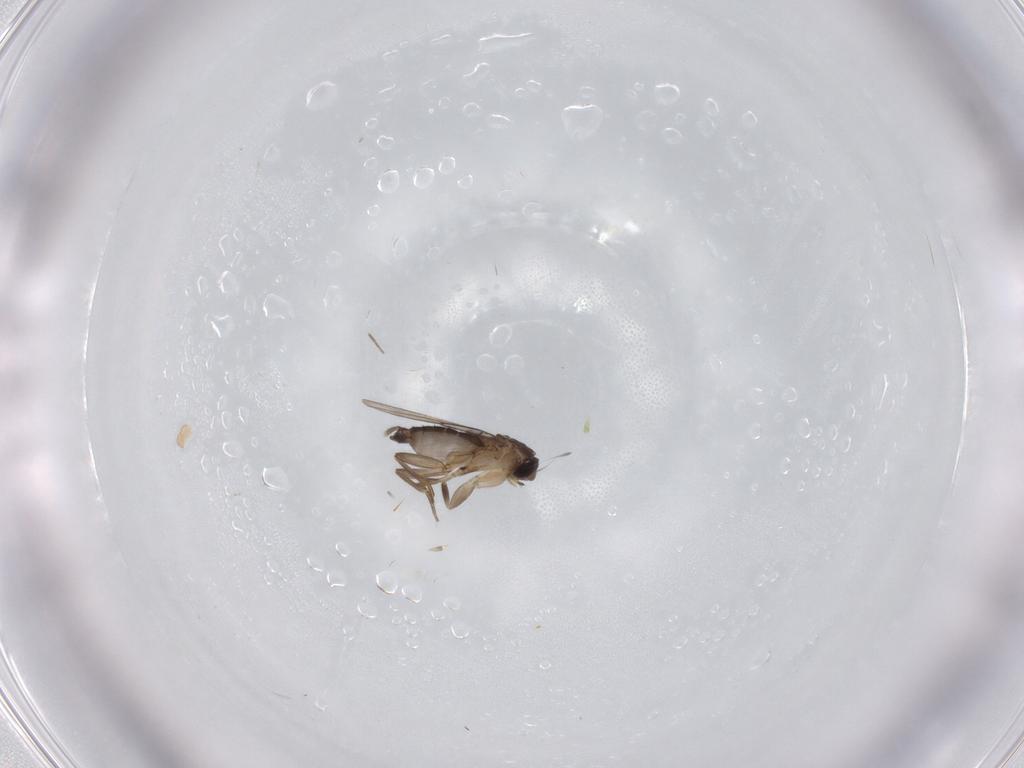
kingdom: Animalia
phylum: Arthropoda
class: Insecta
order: Diptera
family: Phoridae
